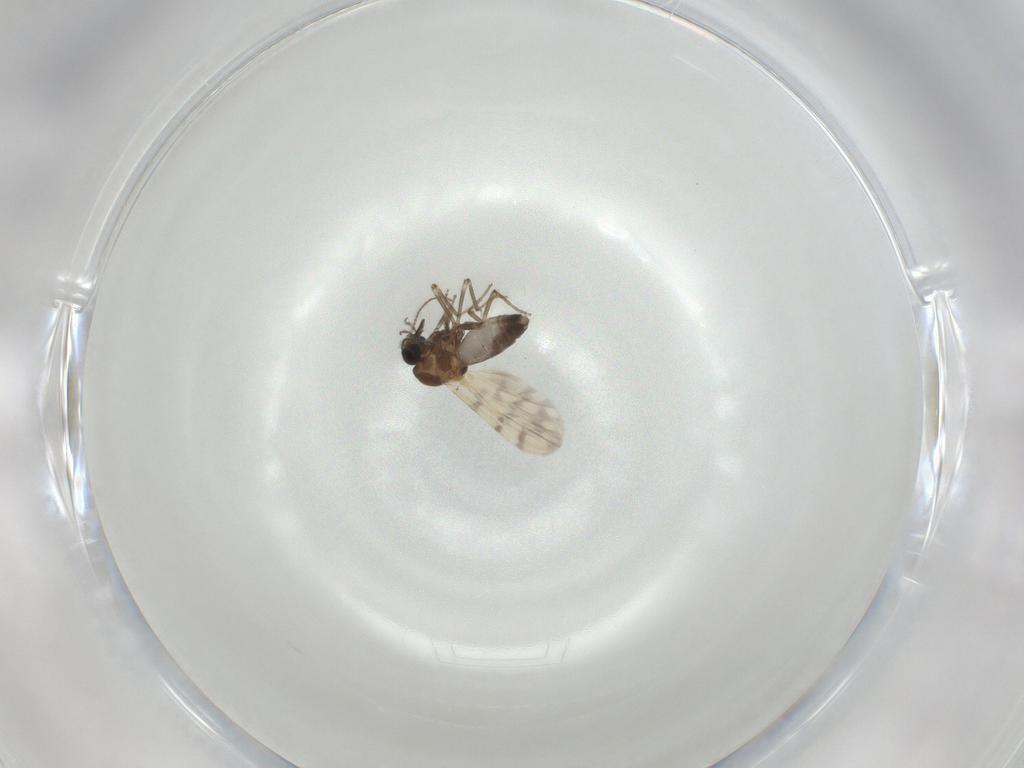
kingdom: Animalia
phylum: Arthropoda
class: Insecta
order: Diptera
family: Ceratopogonidae
